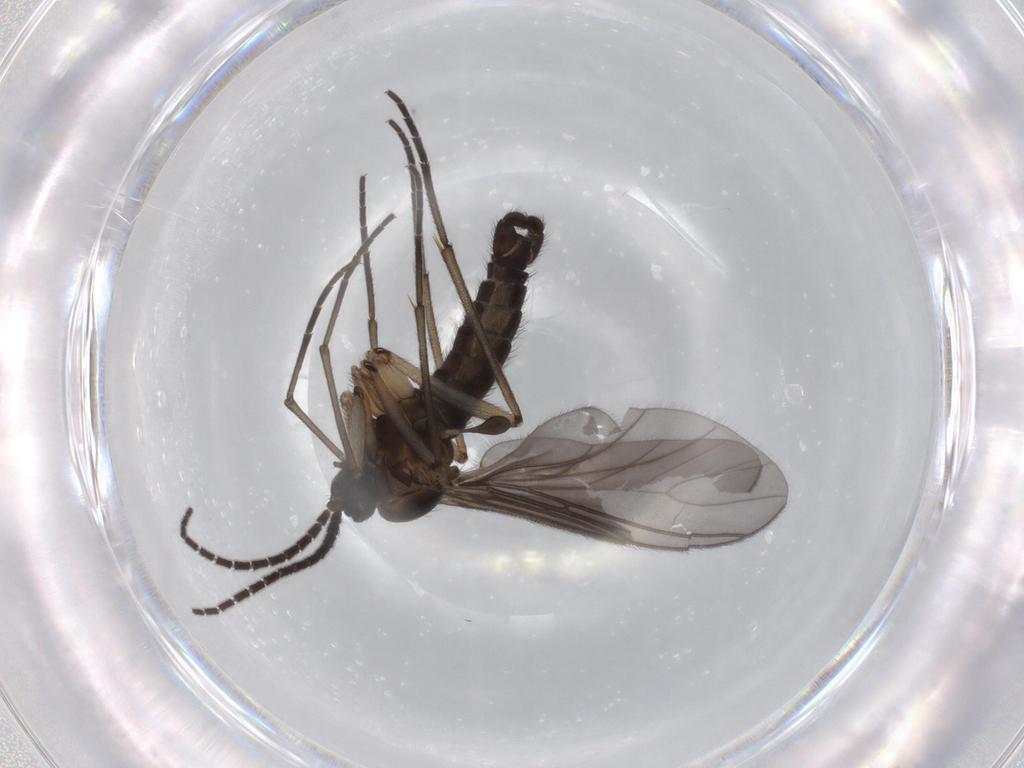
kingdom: Animalia
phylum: Arthropoda
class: Insecta
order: Diptera
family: Sciaridae
